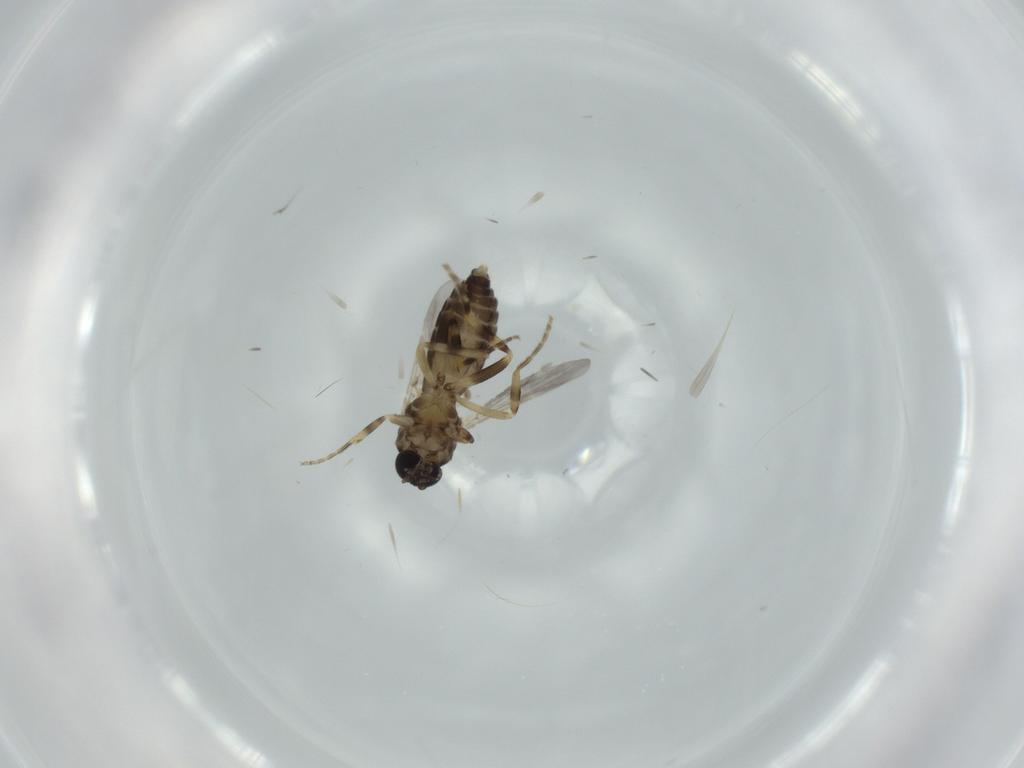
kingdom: Animalia
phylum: Arthropoda
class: Insecta
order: Diptera
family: Ceratopogonidae
